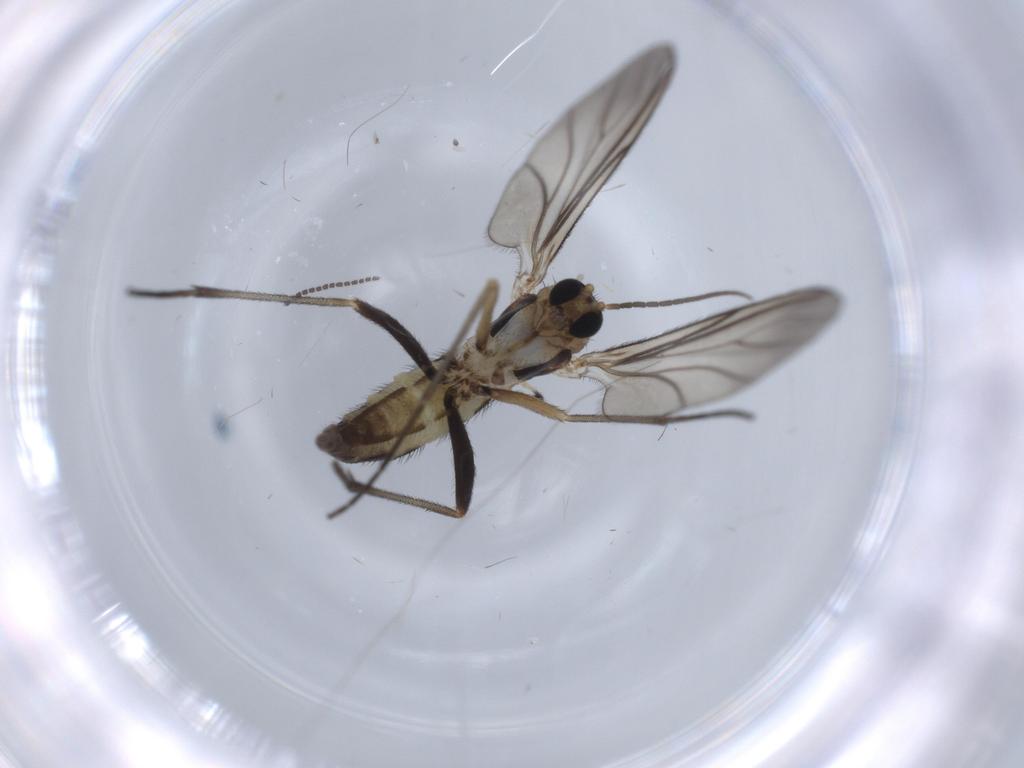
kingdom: Animalia
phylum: Arthropoda
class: Insecta
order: Diptera
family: Sciaridae
